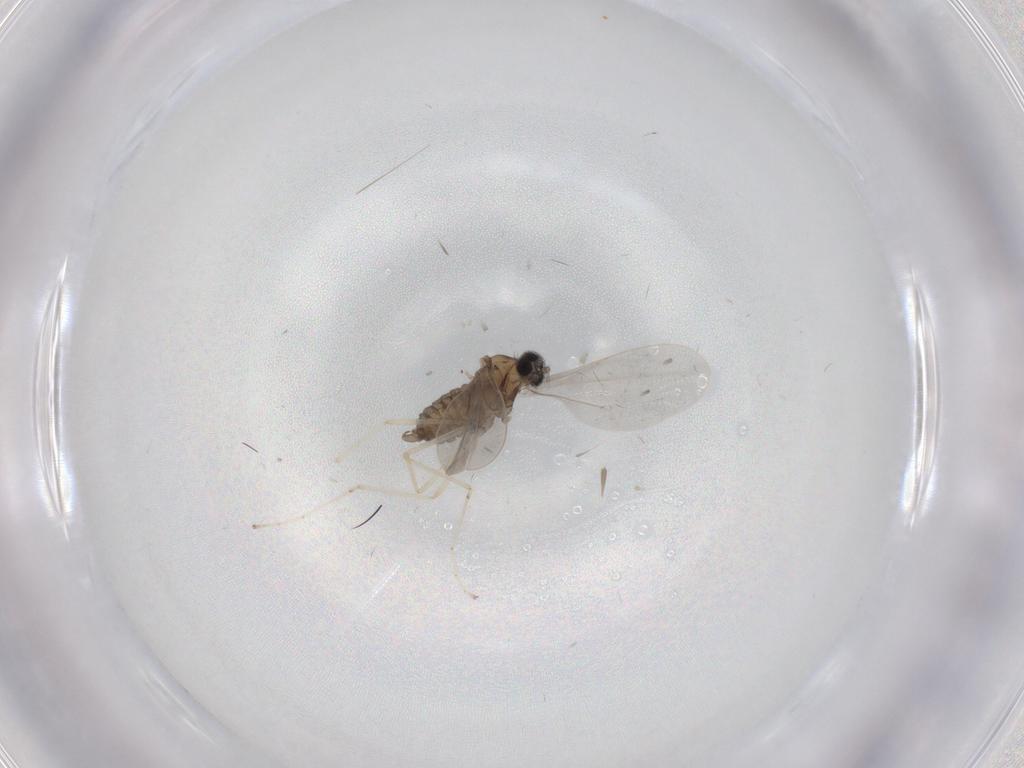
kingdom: Animalia
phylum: Arthropoda
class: Insecta
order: Diptera
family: Cecidomyiidae
